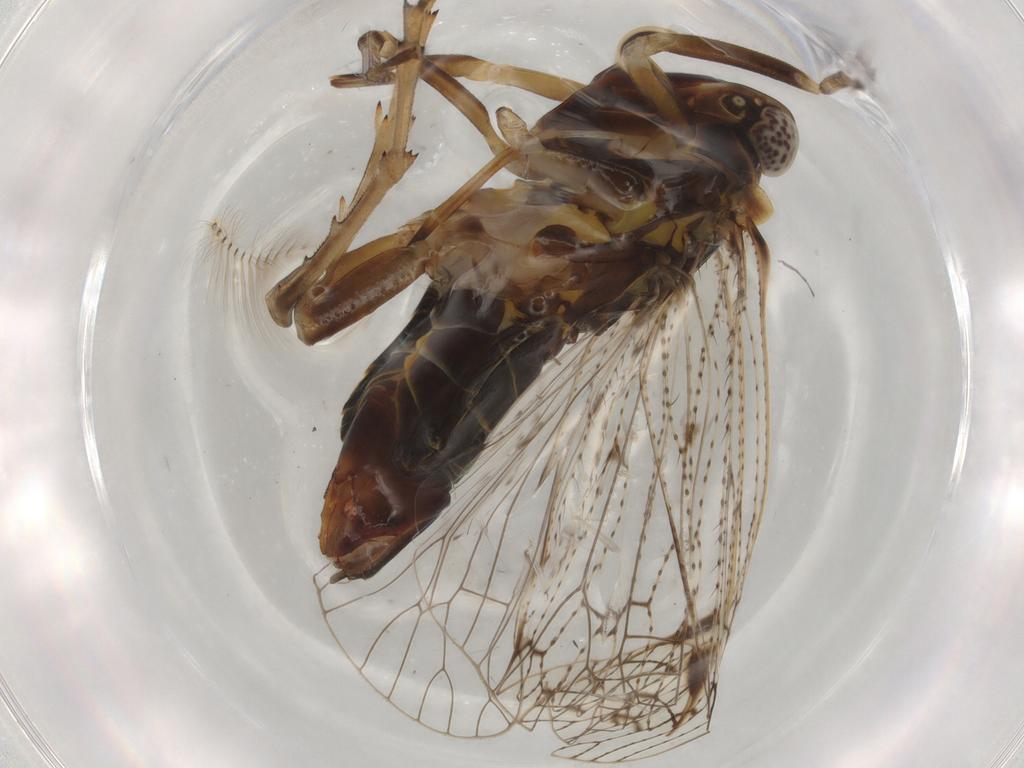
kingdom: Animalia
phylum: Arthropoda
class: Insecta
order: Hemiptera
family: Cixiidae
